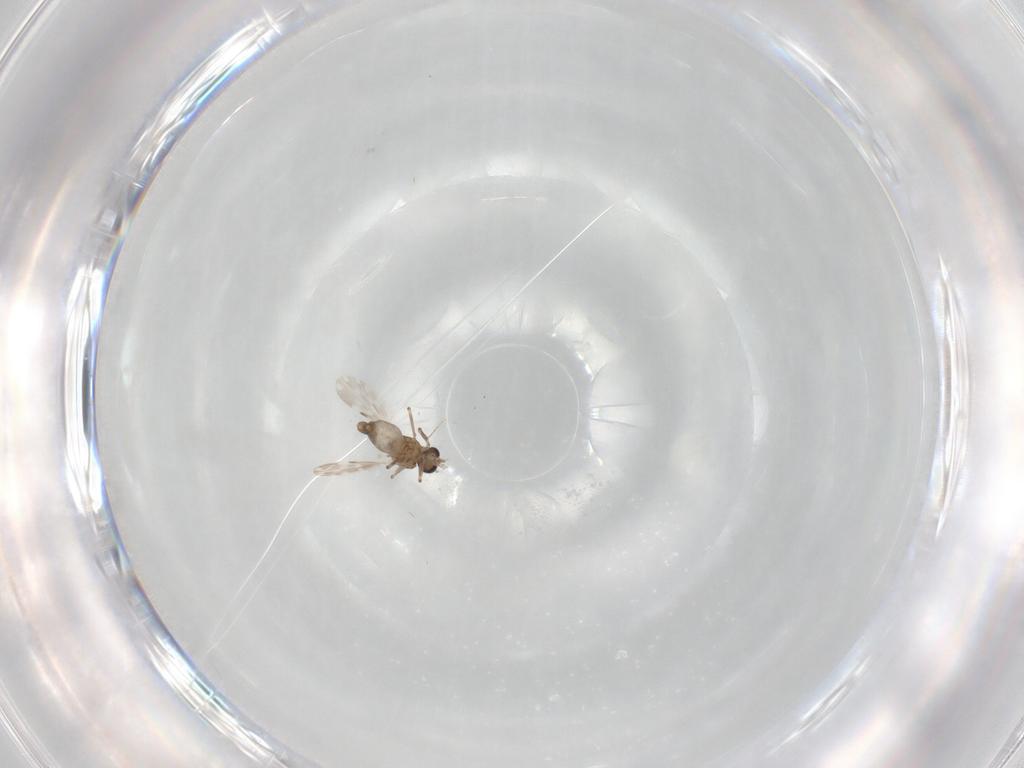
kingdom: Animalia
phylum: Arthropoda
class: Insecta
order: Diptera
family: Ceratopogonidae
